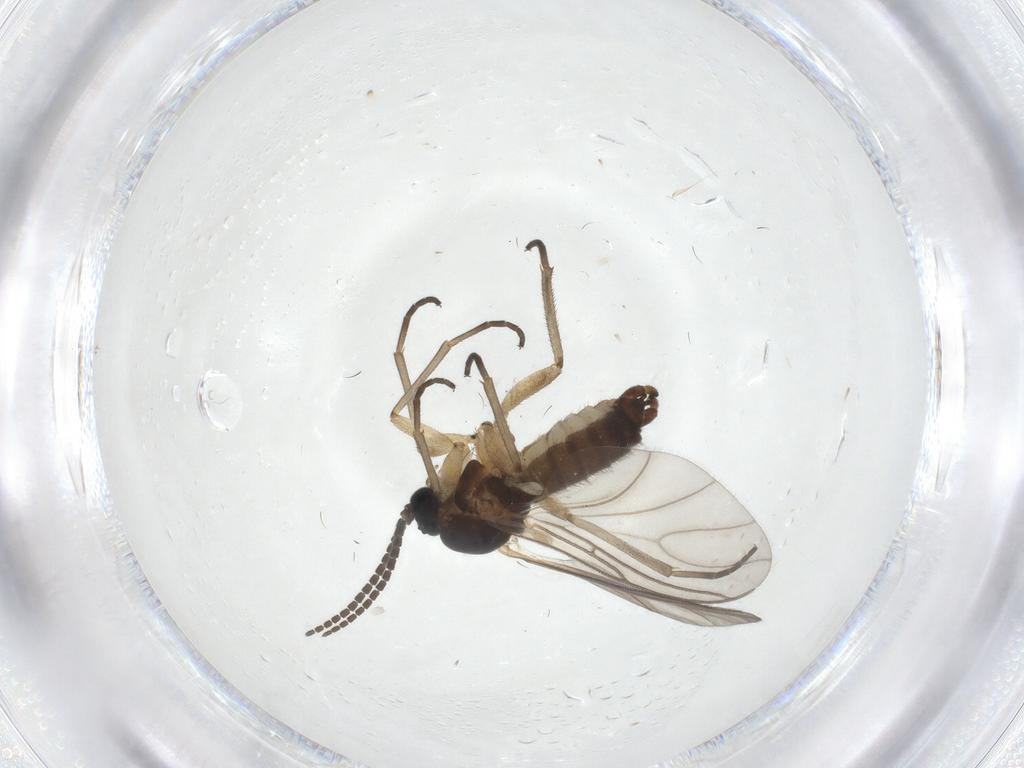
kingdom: Animalia
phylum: Arthropoda
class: Insecta
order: Diptera
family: Sciaridae
